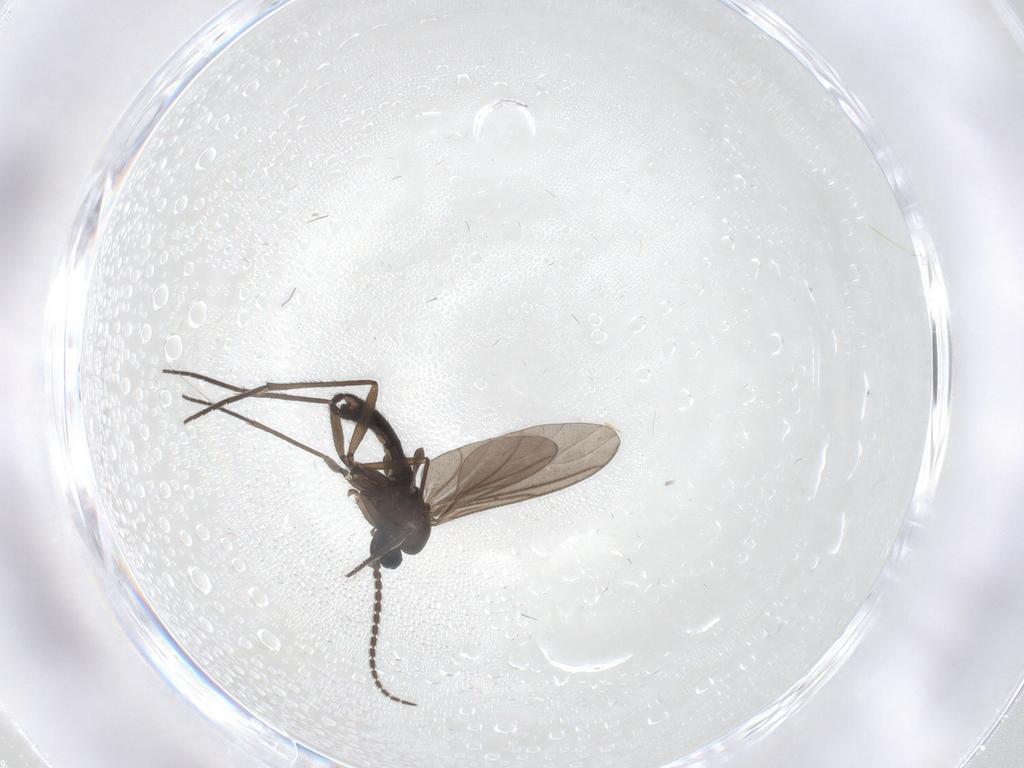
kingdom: Animalia
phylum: Arthropoda
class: Insecta
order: Diptera
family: Sciaridae
